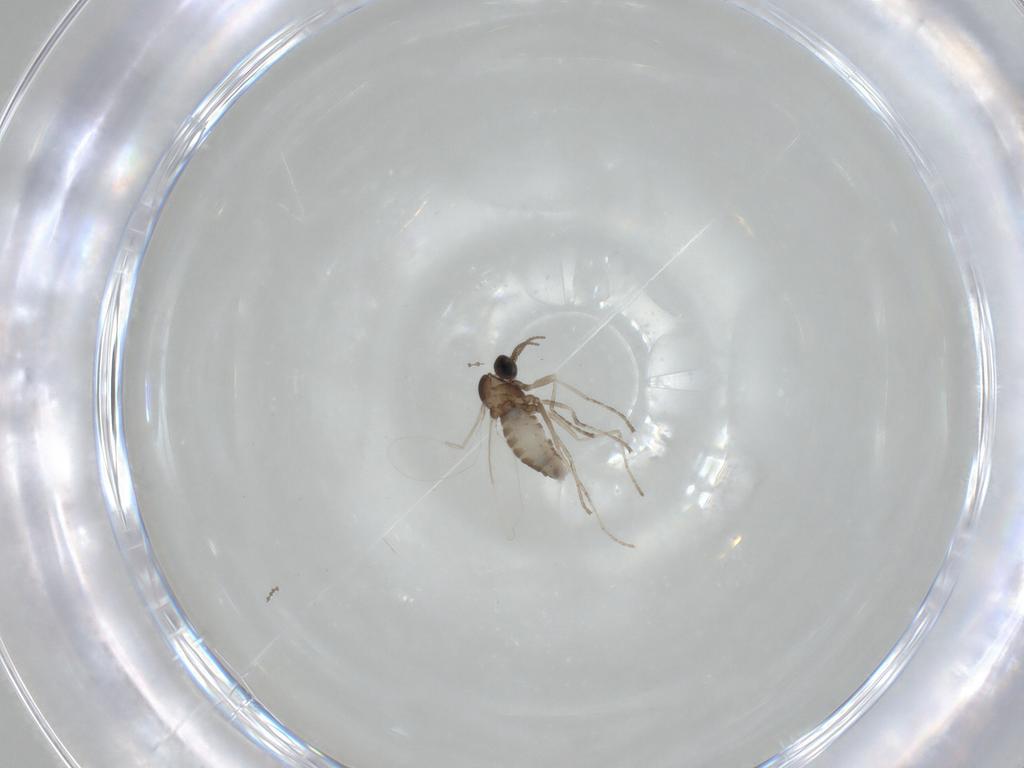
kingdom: Animalia
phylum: Arthropoda
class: Insecta
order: Diptera
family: Cecidomyiidae
